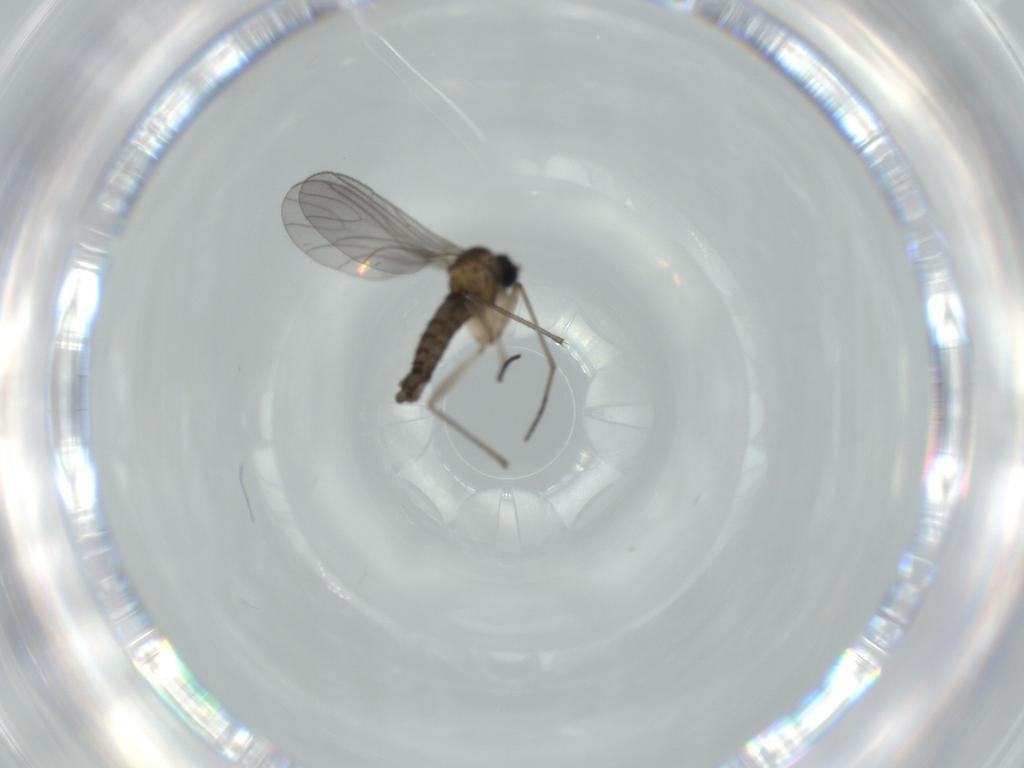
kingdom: Animalia
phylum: Arthropoda
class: Insecta
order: Diptera
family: Sciaridae
